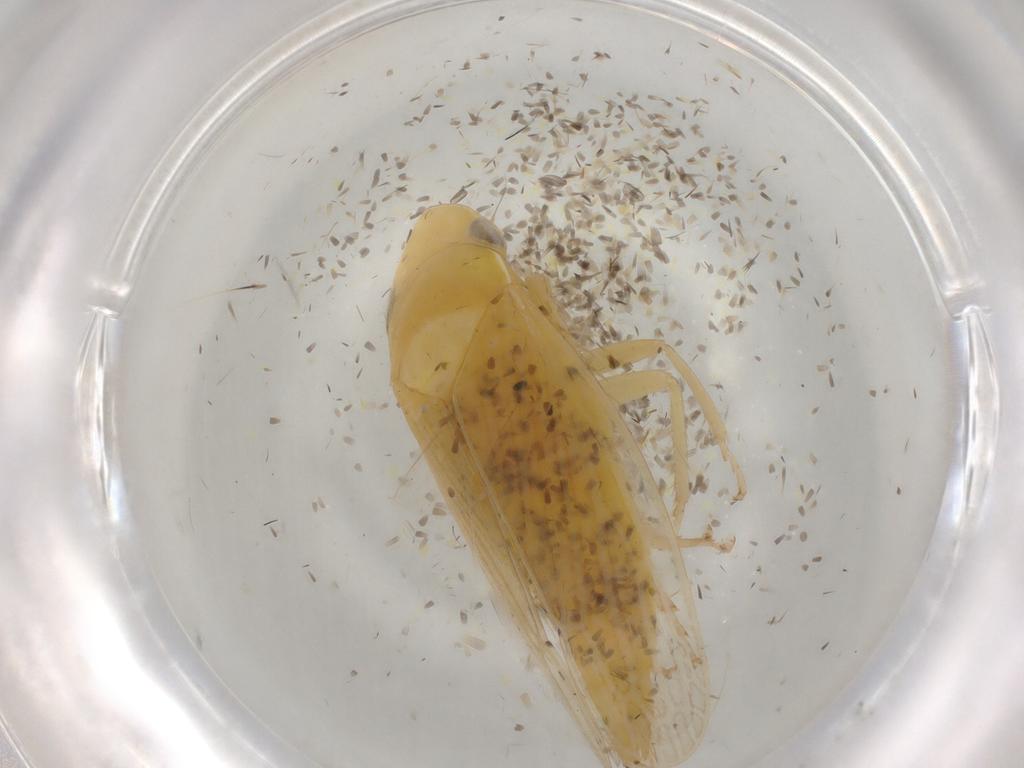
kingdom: Animalia
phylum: Arthropoda
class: Insecta
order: Hemiptera
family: Cicadellidae
